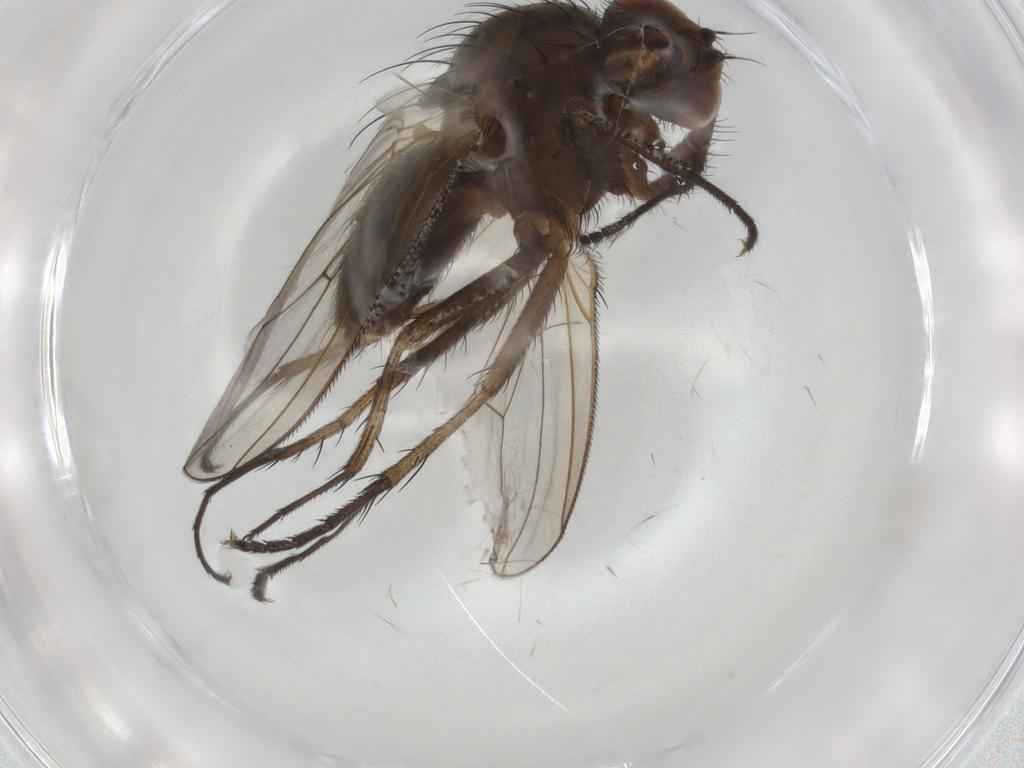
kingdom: Animalia
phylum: Arthropoda
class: Insecta
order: Diptera
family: Anthomyiidae
